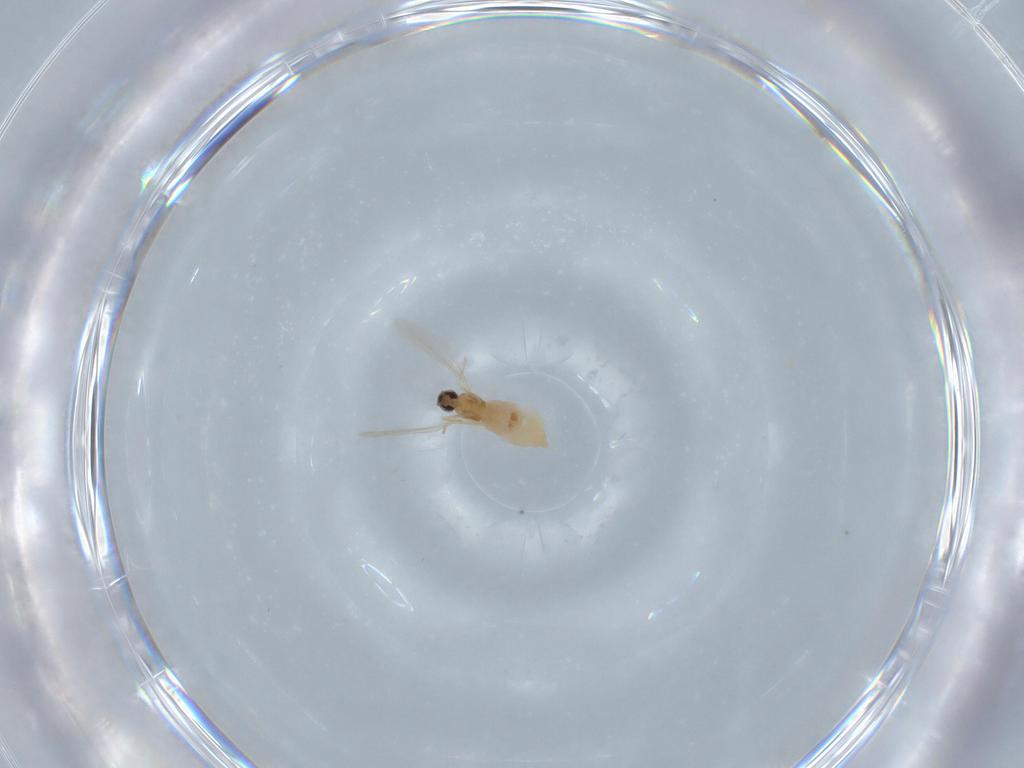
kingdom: Animalia
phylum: Arthropoda
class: Insecta
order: Diptera
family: Cecidomyiidae
